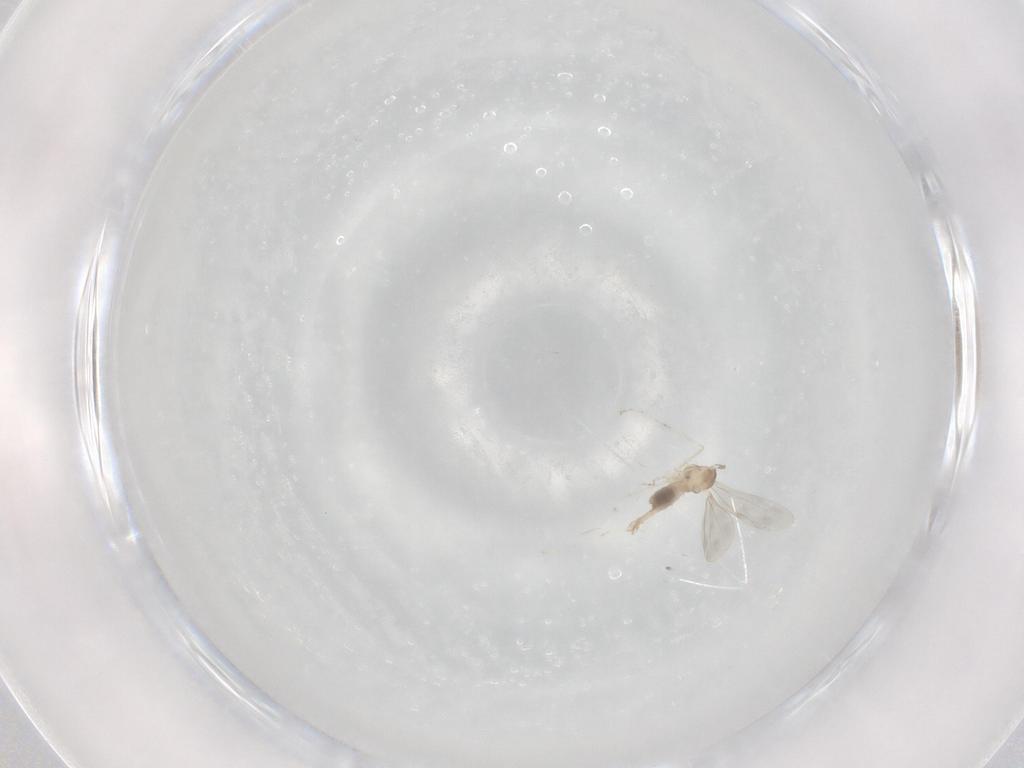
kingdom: Animalia
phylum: Arthropoda
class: Insecta
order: Diptera
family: Cecidomyiidae
